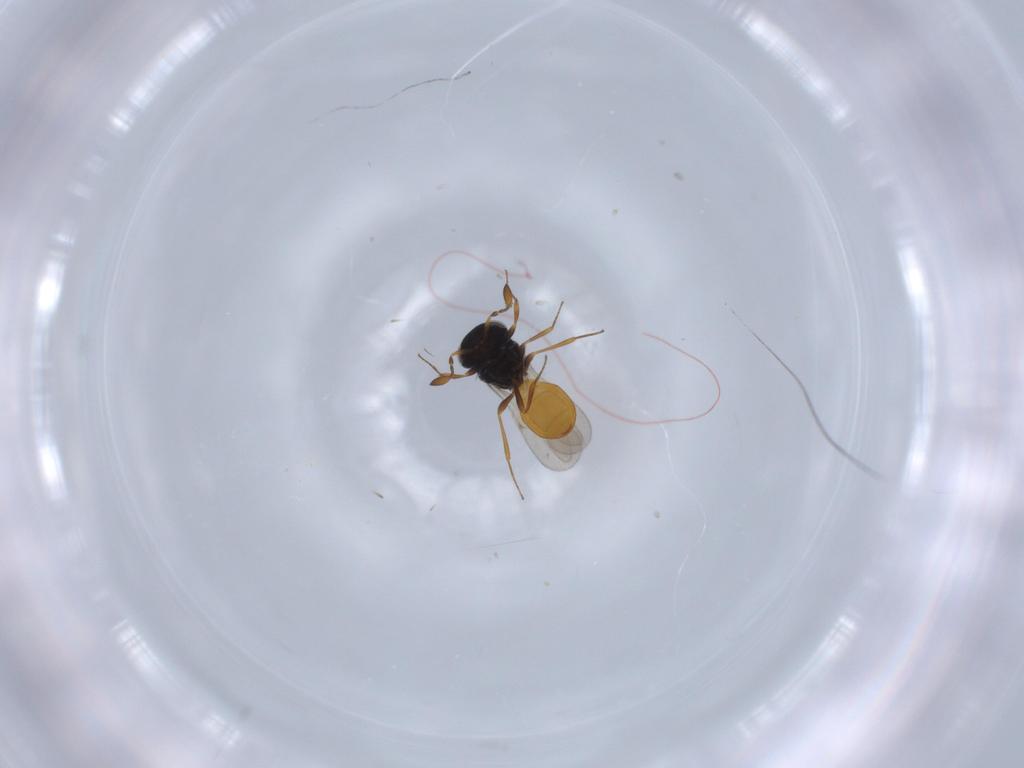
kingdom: Animalia
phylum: Arthropoda
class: Insecta
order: Hymenoptera
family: Scelionidae
